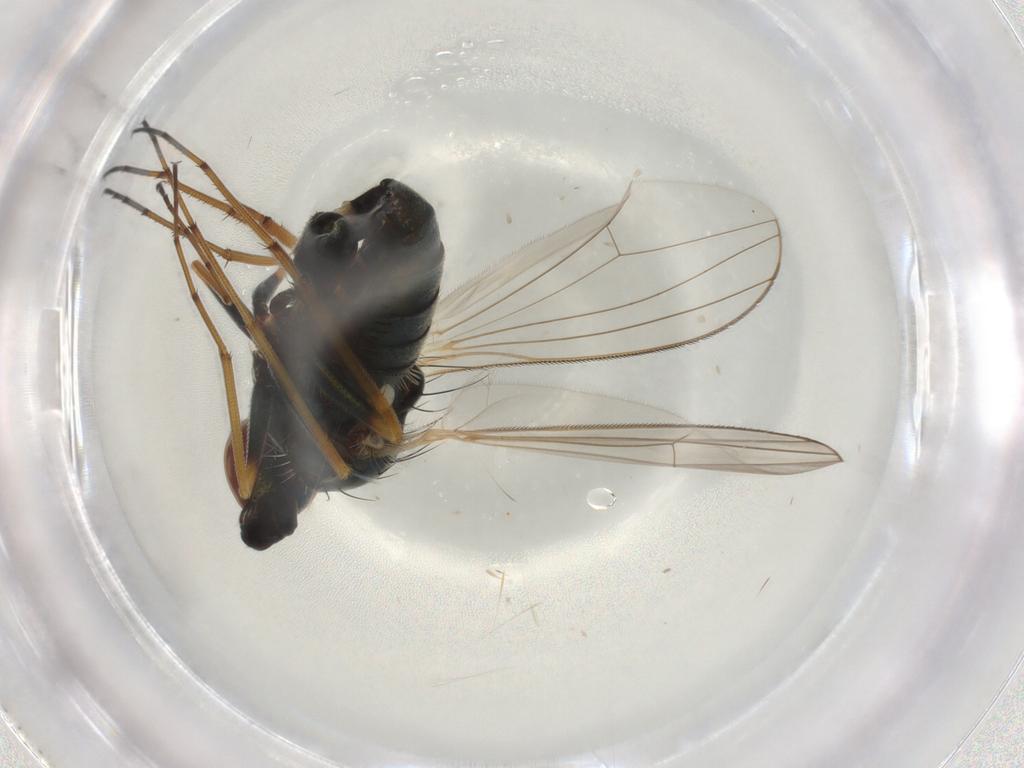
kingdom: Animalia
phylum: Arthropoda
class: Insecta
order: Diptera
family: Dolichopodidae
